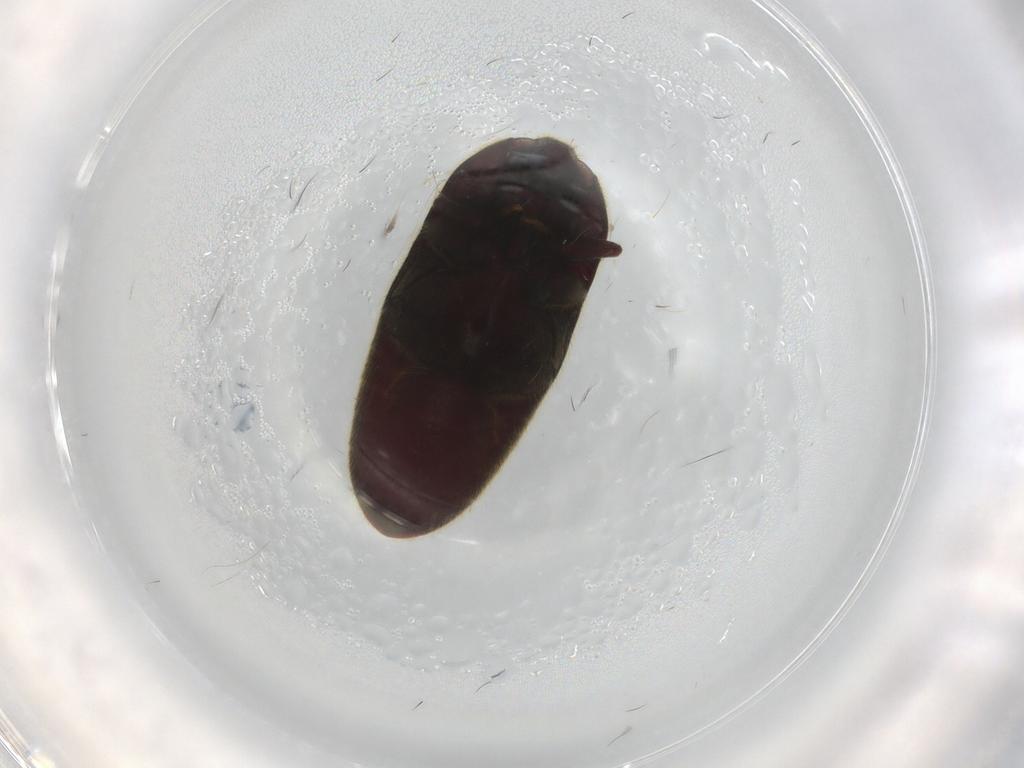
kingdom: Animalia
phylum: Arthropoda
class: Insecta
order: Coleoptera
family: Throscidae
